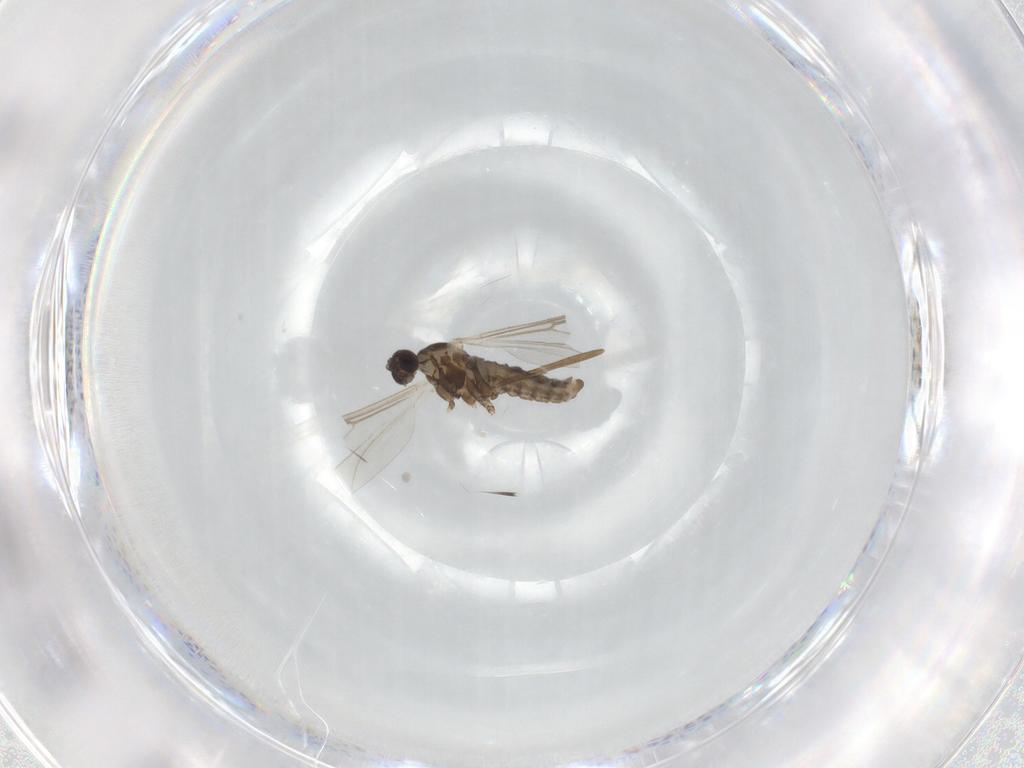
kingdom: Animalia
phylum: Arthropoda
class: Insecta
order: Diptera
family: Cecidomyiidae
